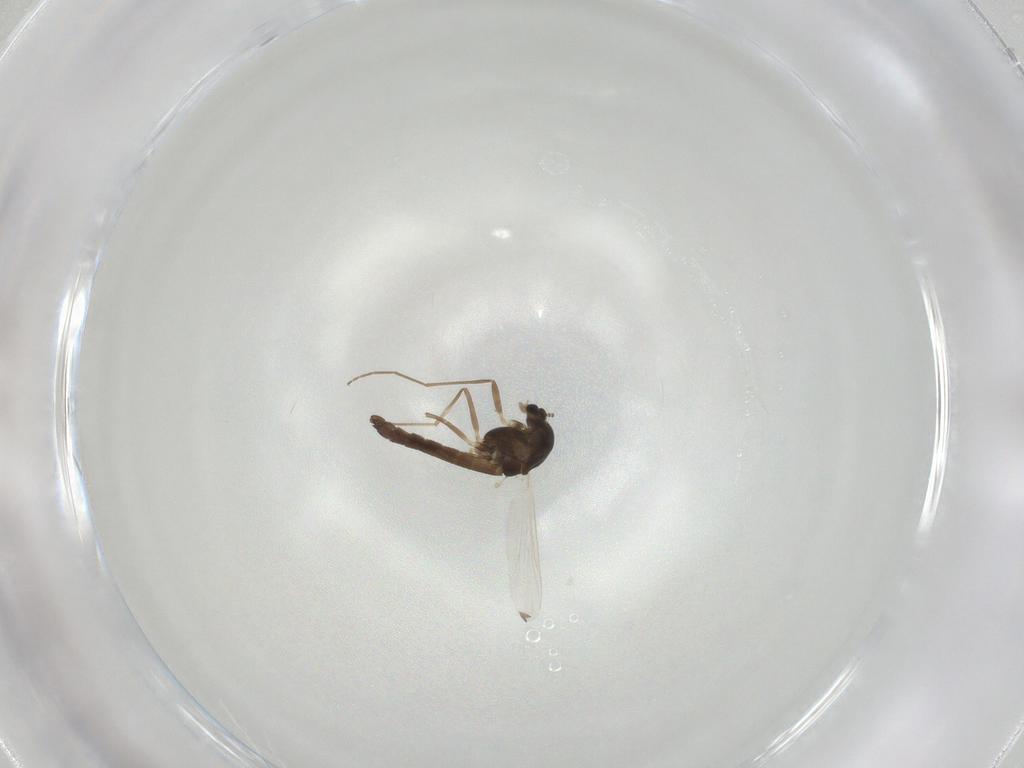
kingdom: Animalia
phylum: Arthropoda
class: Insecta
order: Diptera
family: Chironomidae
